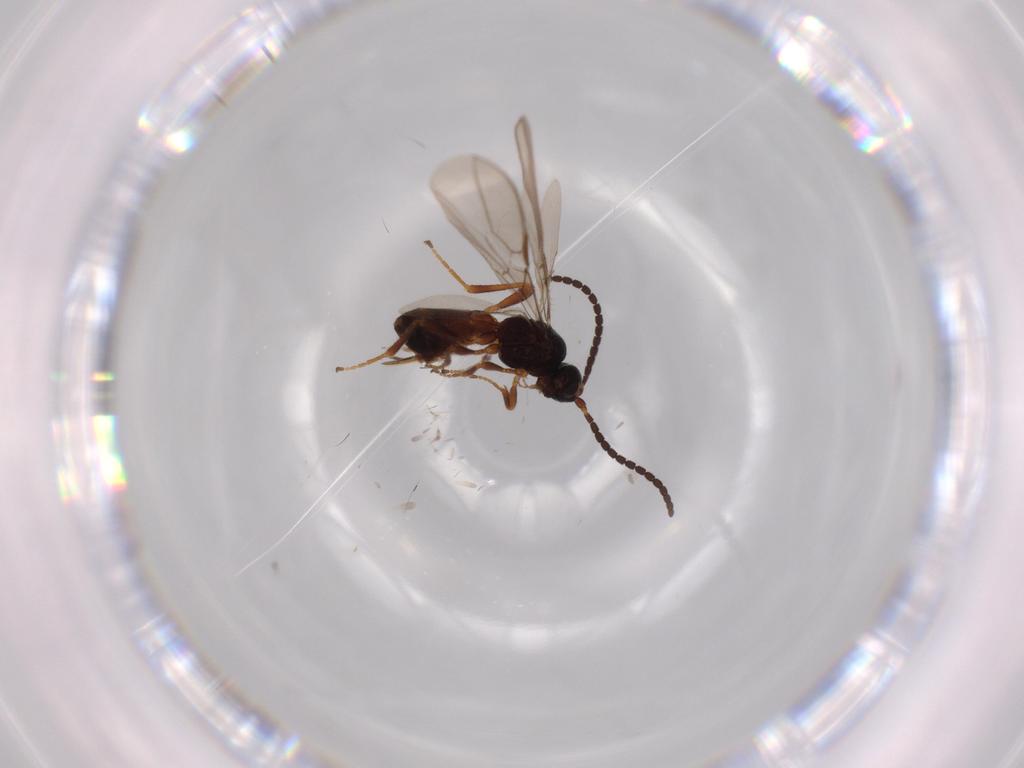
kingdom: Animalia
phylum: Arthropoda
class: Insecta
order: Hymenoptera
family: Braconidae
